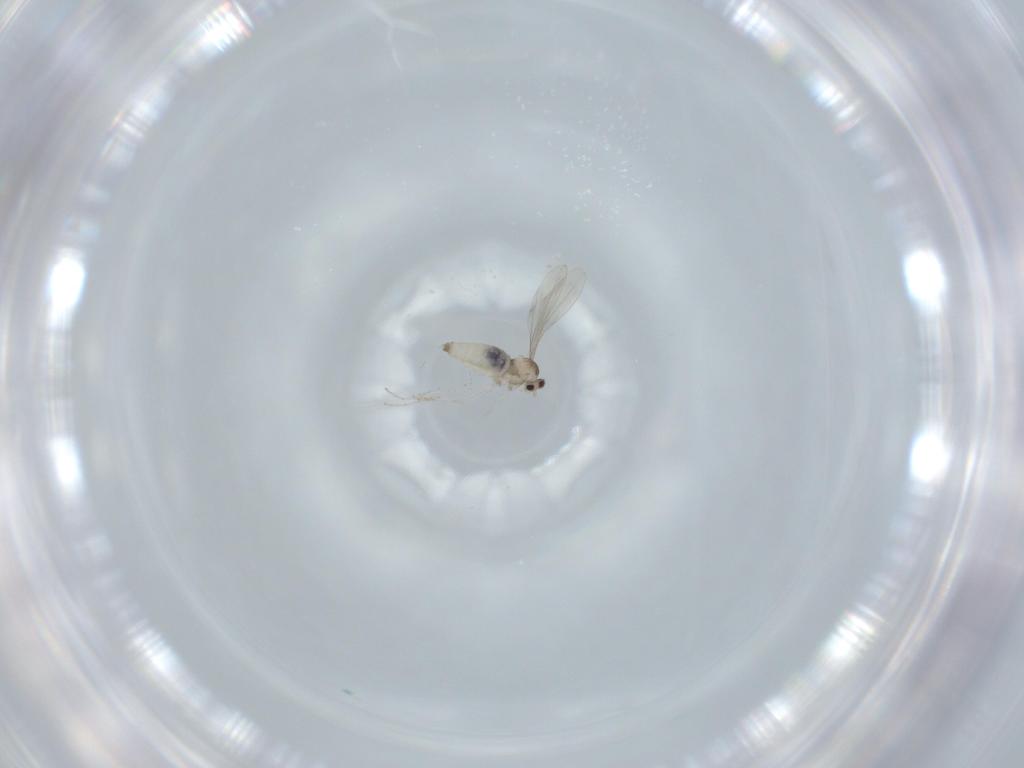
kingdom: Animalia
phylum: Arthropoda
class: Insecta
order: Diptera
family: Cecidomyiidae
